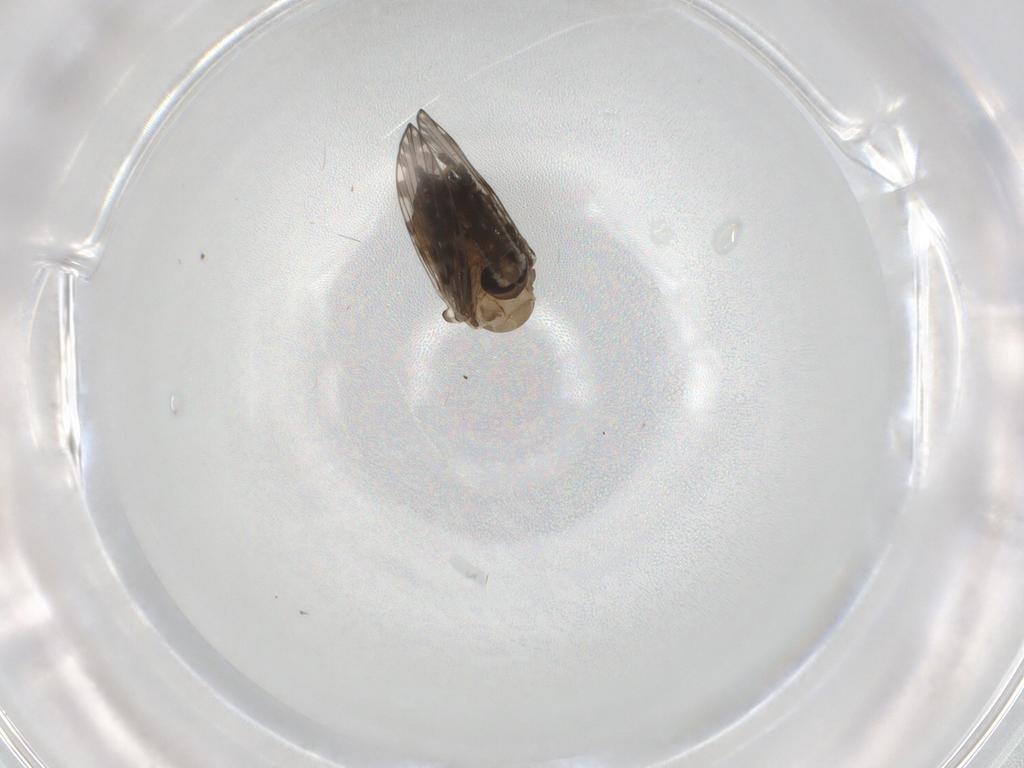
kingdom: Animalia
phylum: Arthropoda
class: Insecta
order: Diptera
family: Psychodidae
